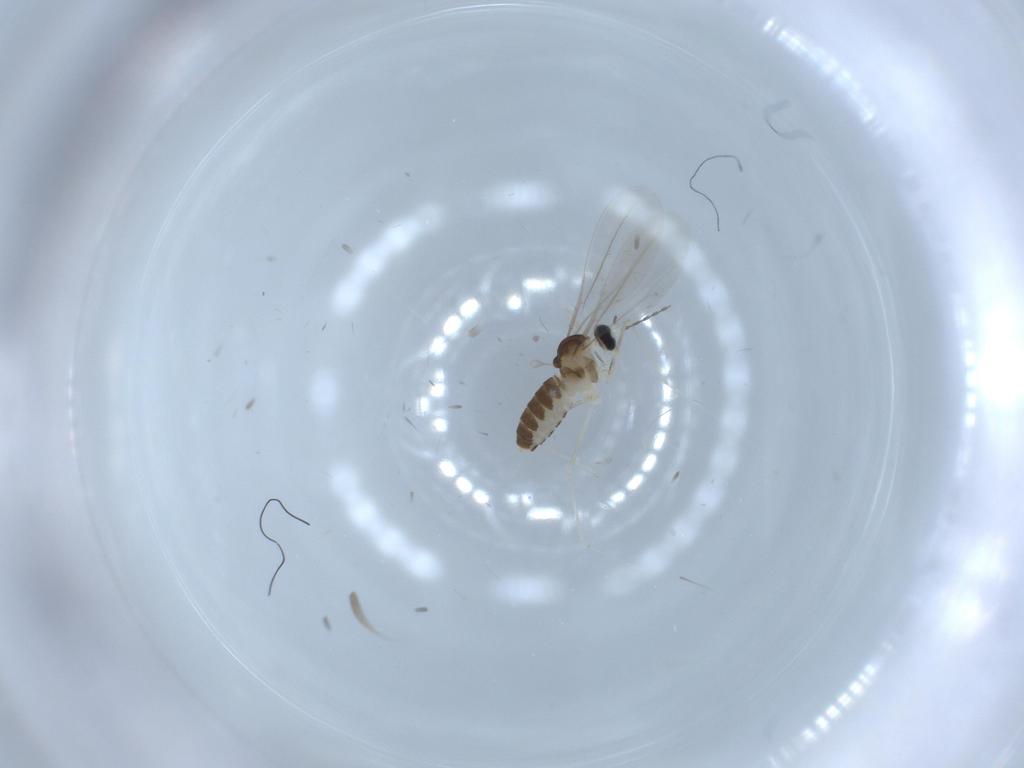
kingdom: Animalia
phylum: Arthropoda
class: Insecta
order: Diptera
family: Cecidomyiidae
